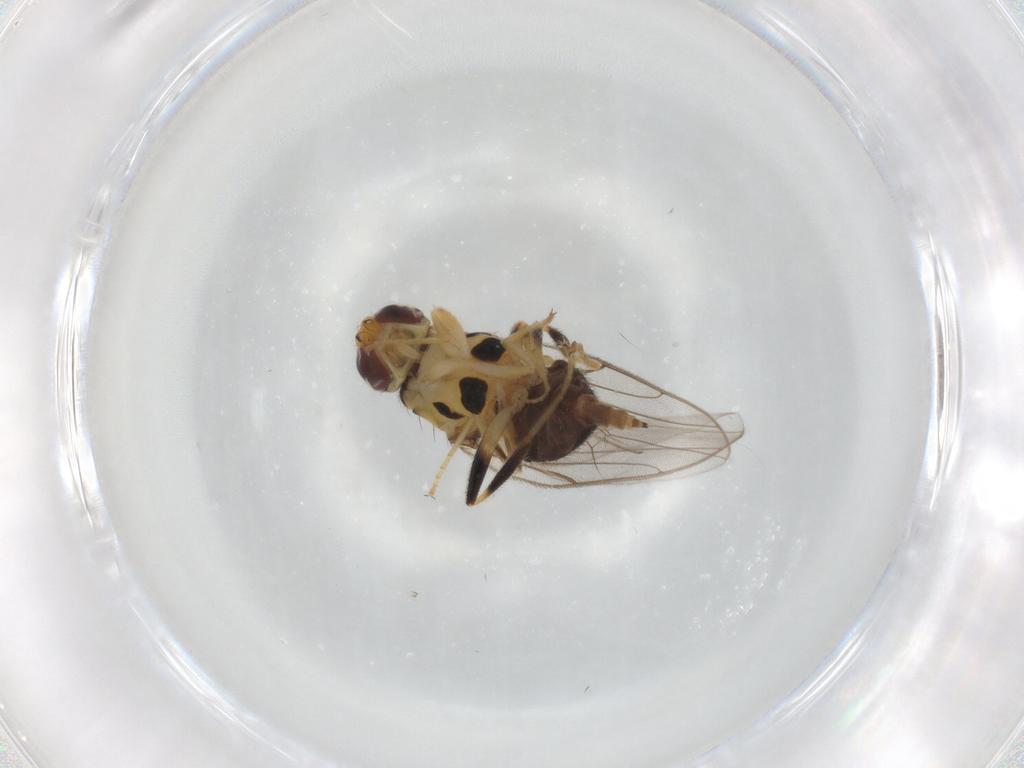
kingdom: Animalia
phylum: Arthropoda
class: Insecta
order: Diptera
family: Chloropidae
